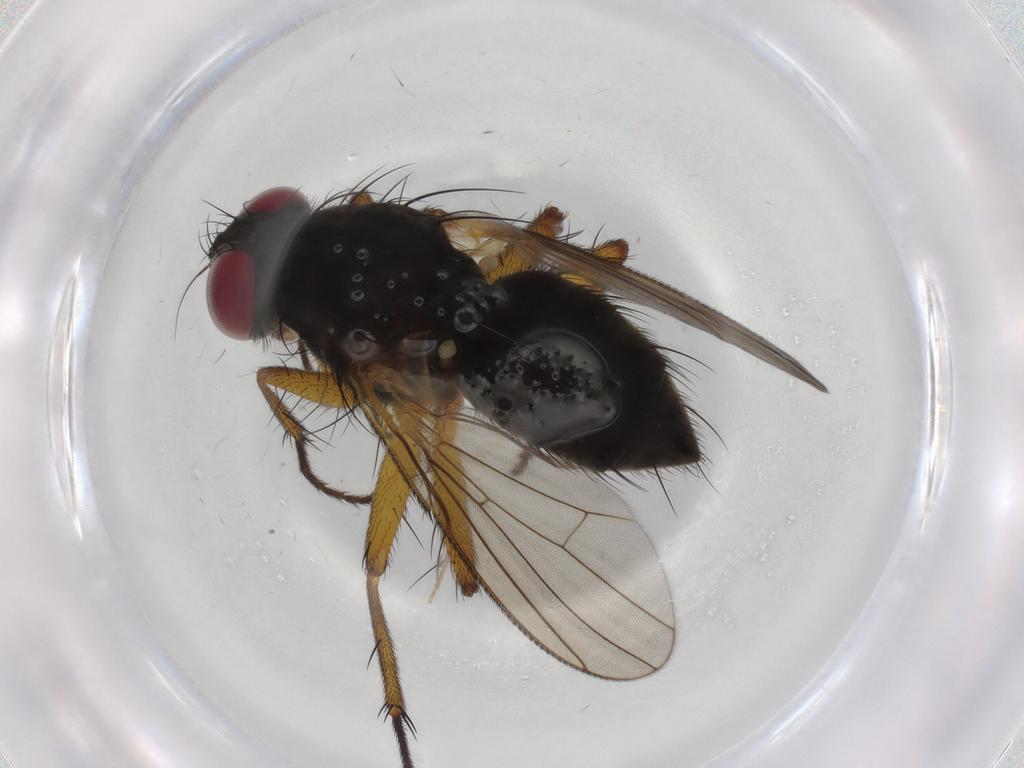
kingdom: Animalia
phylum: Arthropoda
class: Insecta
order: Diptera
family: Muscidae
